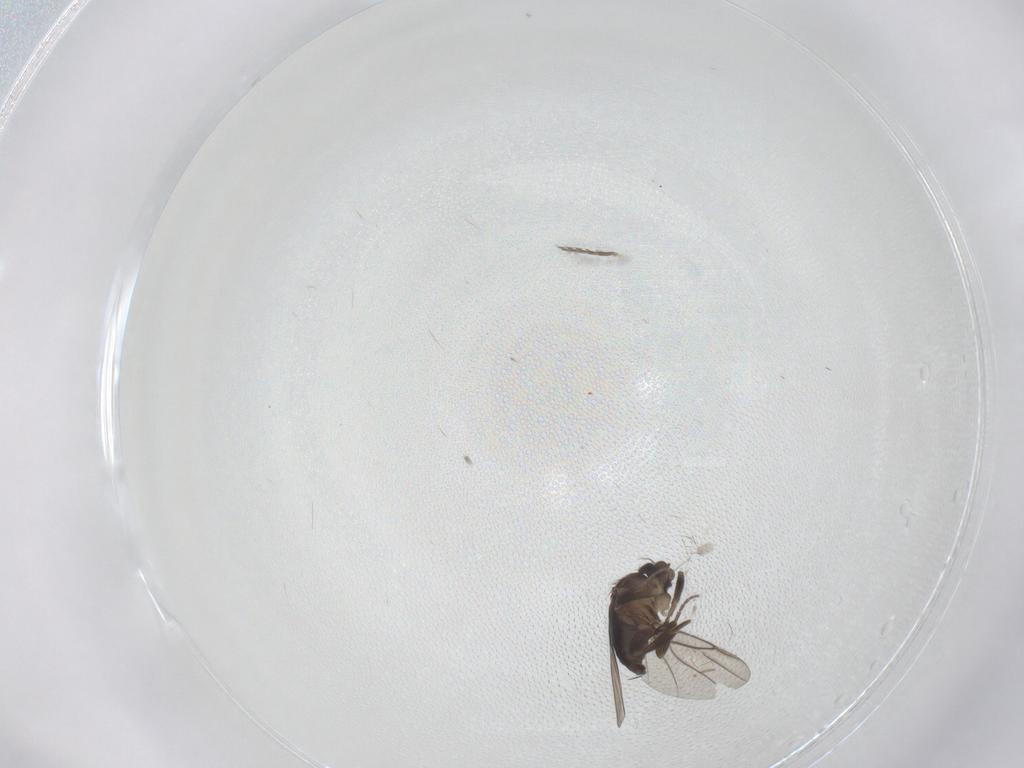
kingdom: Animalia
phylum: Arthropoda
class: Insecta
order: Diptera
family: Phoridae
